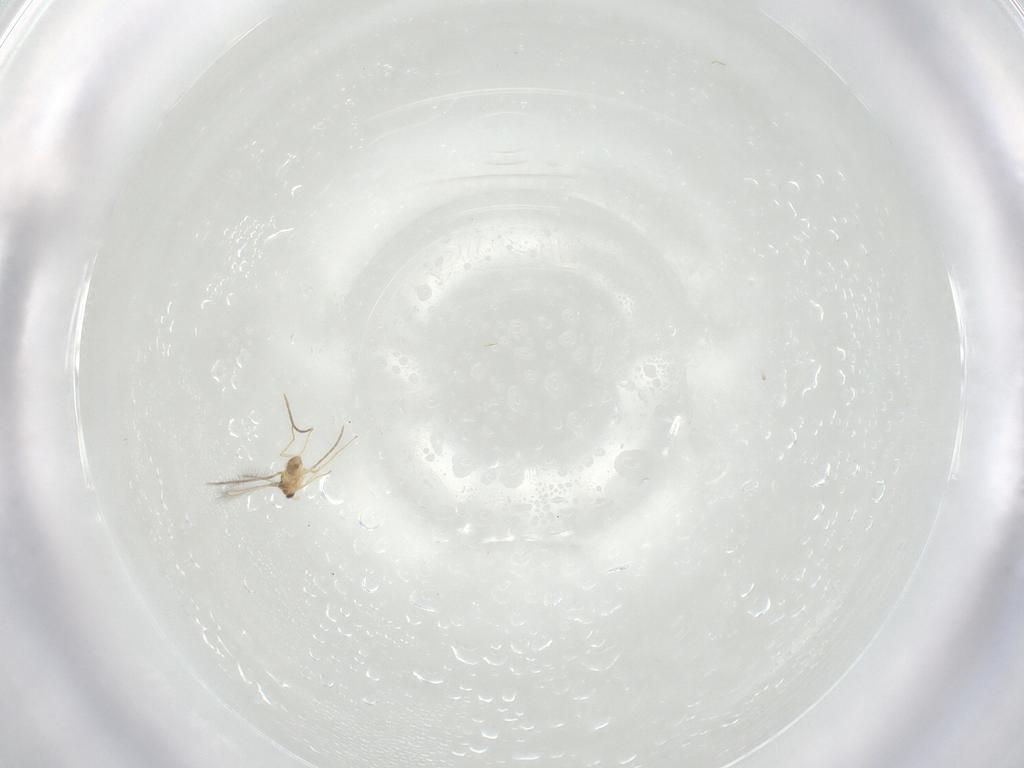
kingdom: Animalia
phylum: Arthropoda
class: Insecta
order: Hymenoptera
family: Mymaridae
